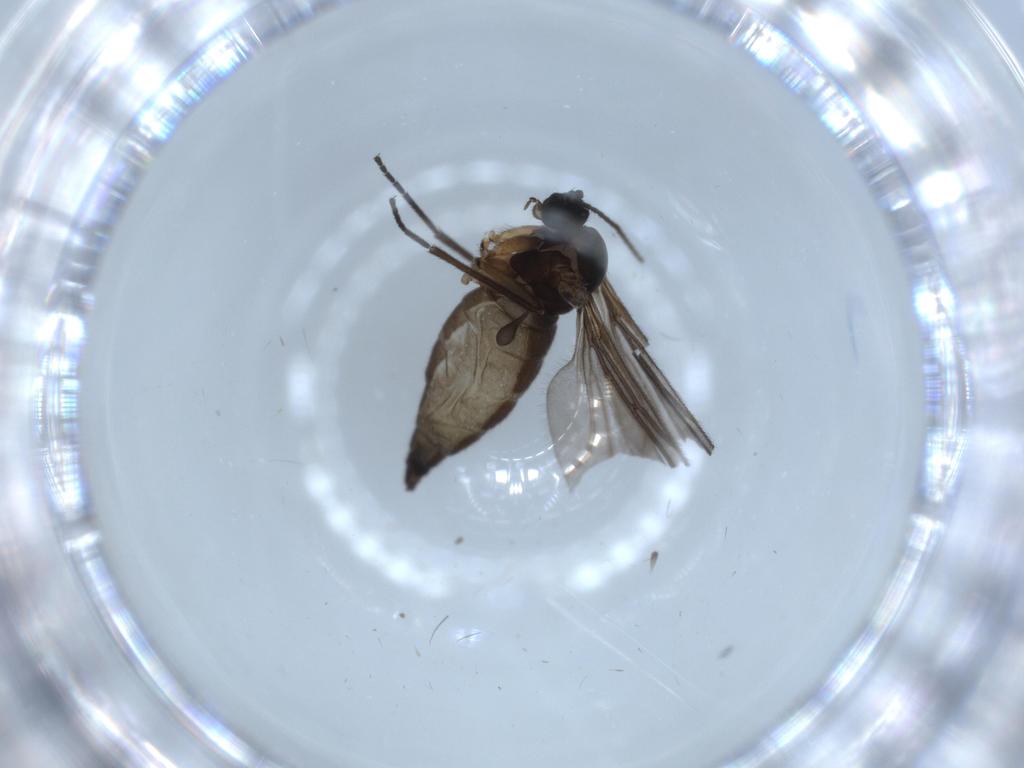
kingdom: Animalia
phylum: Arthropoda
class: Insecta
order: Diptera
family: Sciaridae
